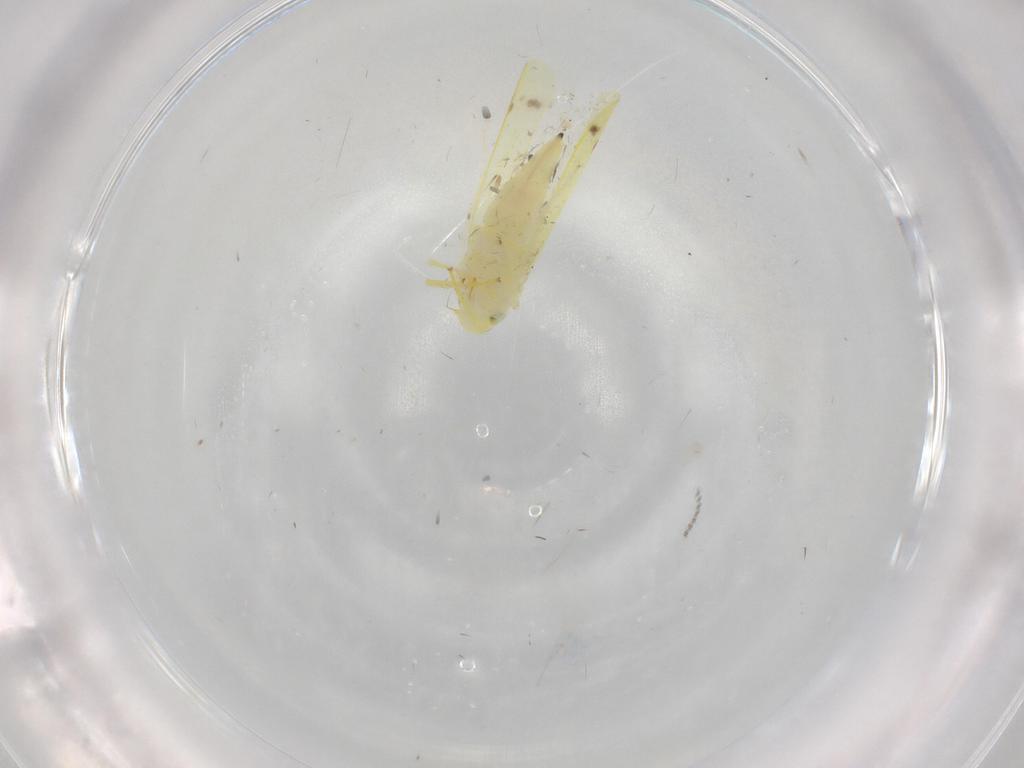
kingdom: Animalia
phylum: Arthropoda
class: Insecta
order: Hemiptera
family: Cicadellidae
